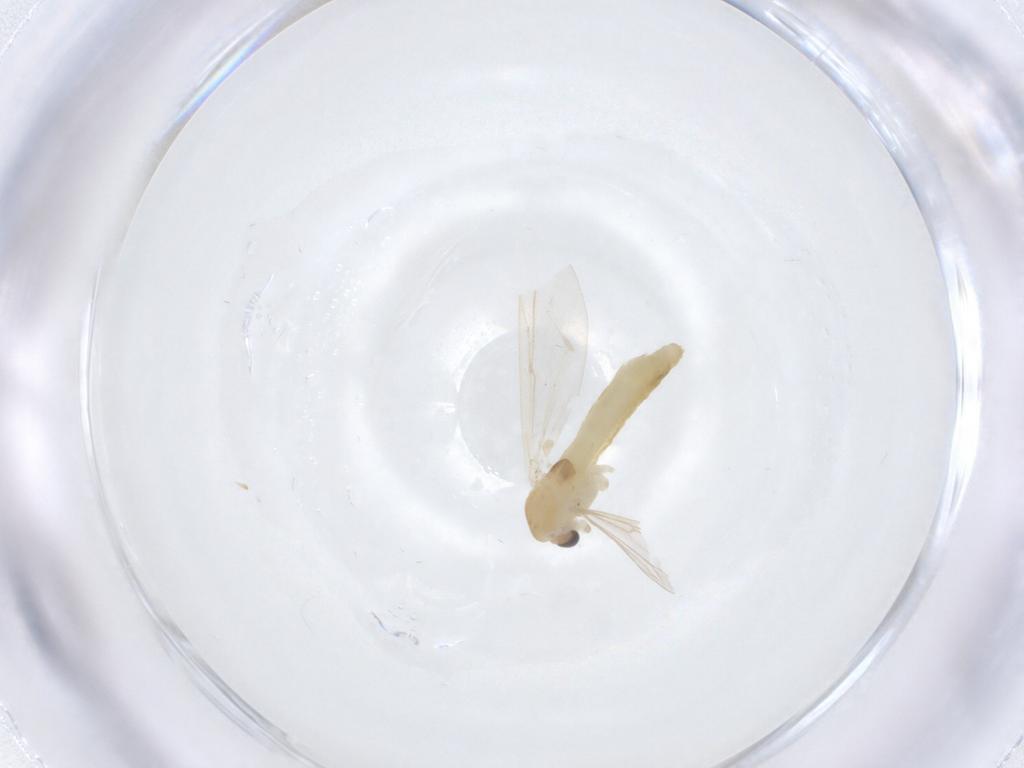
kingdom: Animalia
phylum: Arthropoda
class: Insecta
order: Diptera
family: Chironomidae
